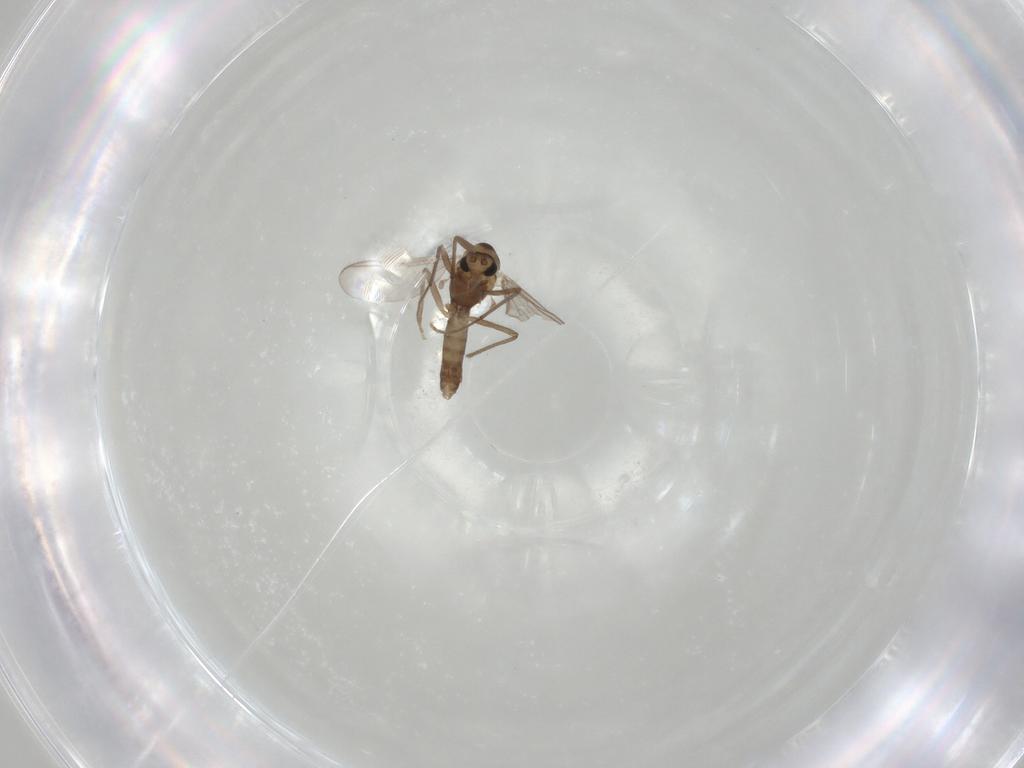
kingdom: Animalia
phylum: Arthropoda
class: Insecta
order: Diptera
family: Chironomidae
